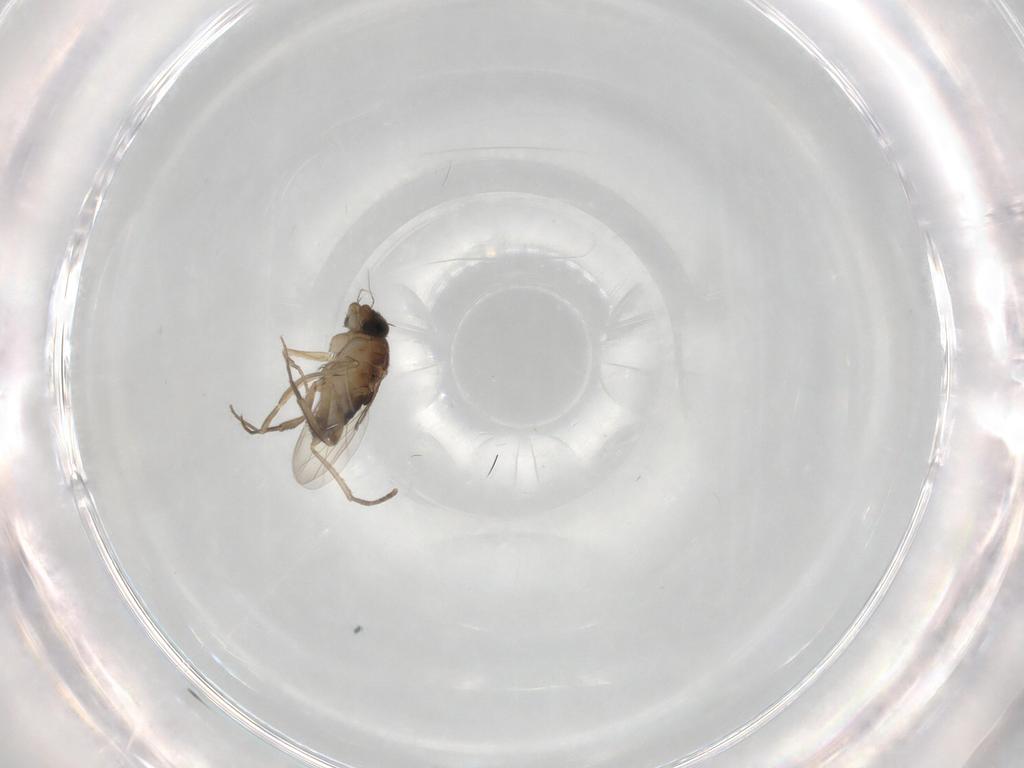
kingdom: Animalia
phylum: Arthropoda
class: Insecta
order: Diptera
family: Phoridae
